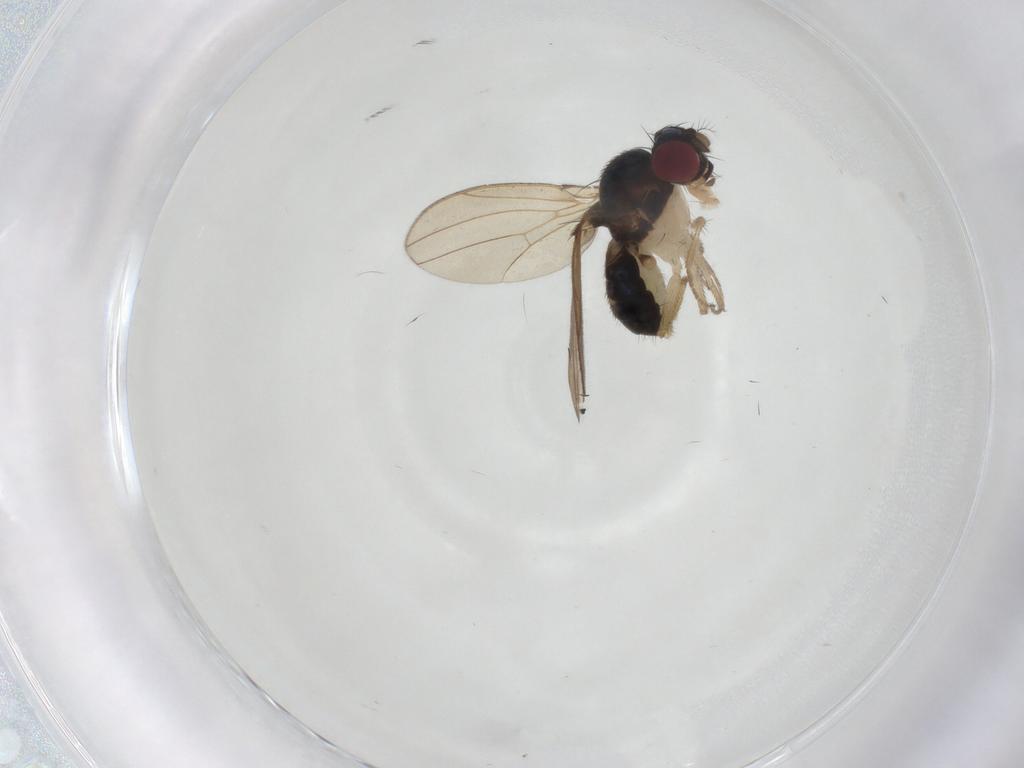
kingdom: Animalia
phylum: Arthropoda
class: Insecta
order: Diptera
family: Drosophilidae
